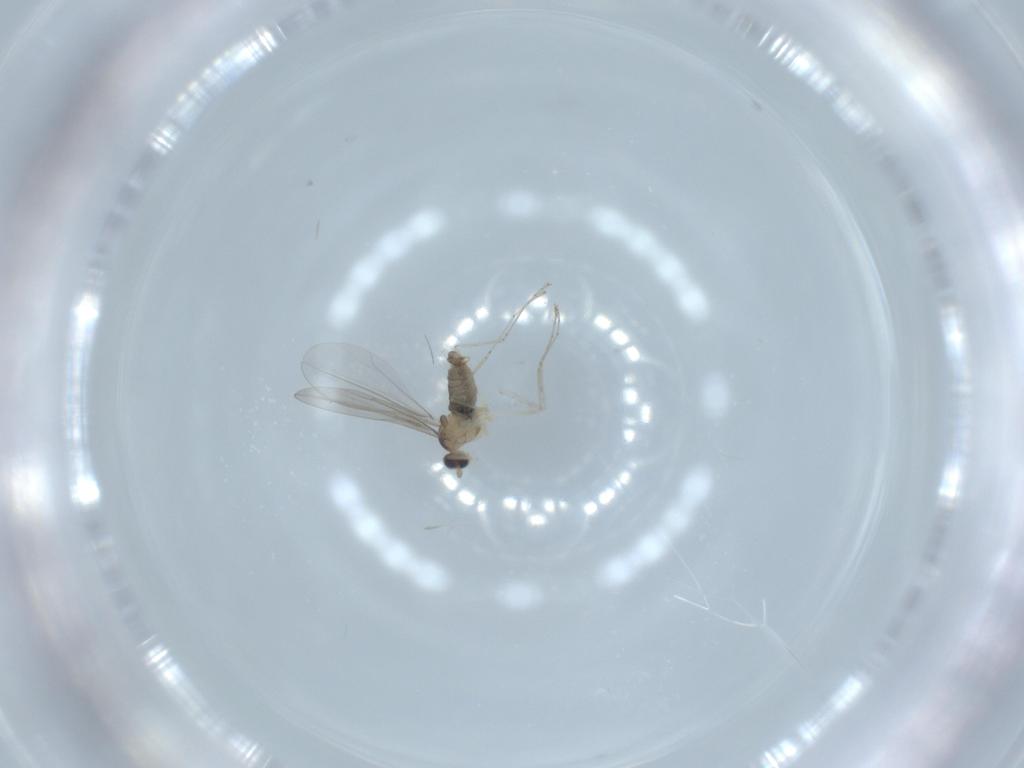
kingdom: Animalia
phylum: Arthropoda
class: Insecta
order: Diptera
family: Cecidomyiidae
